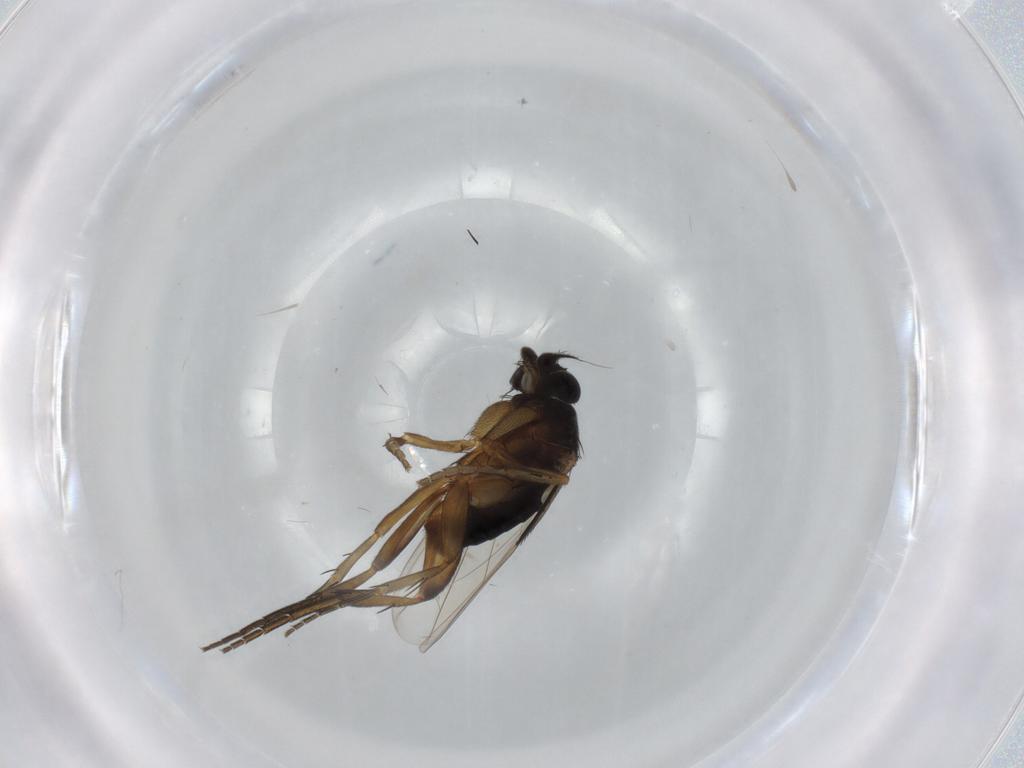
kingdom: Animalia
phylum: Arthropoda
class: Insecta
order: Diptera
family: Phoridae
